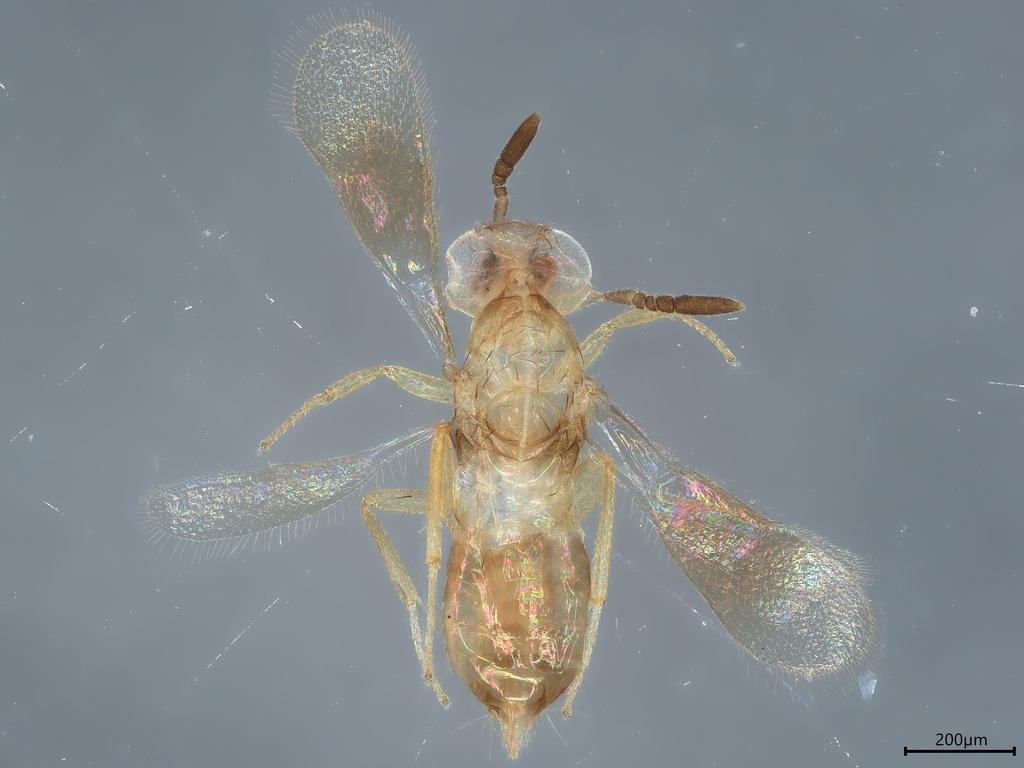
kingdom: Animalia
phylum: Arthropoda
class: Insecta
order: Hymenoptera
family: Aphelinidae
